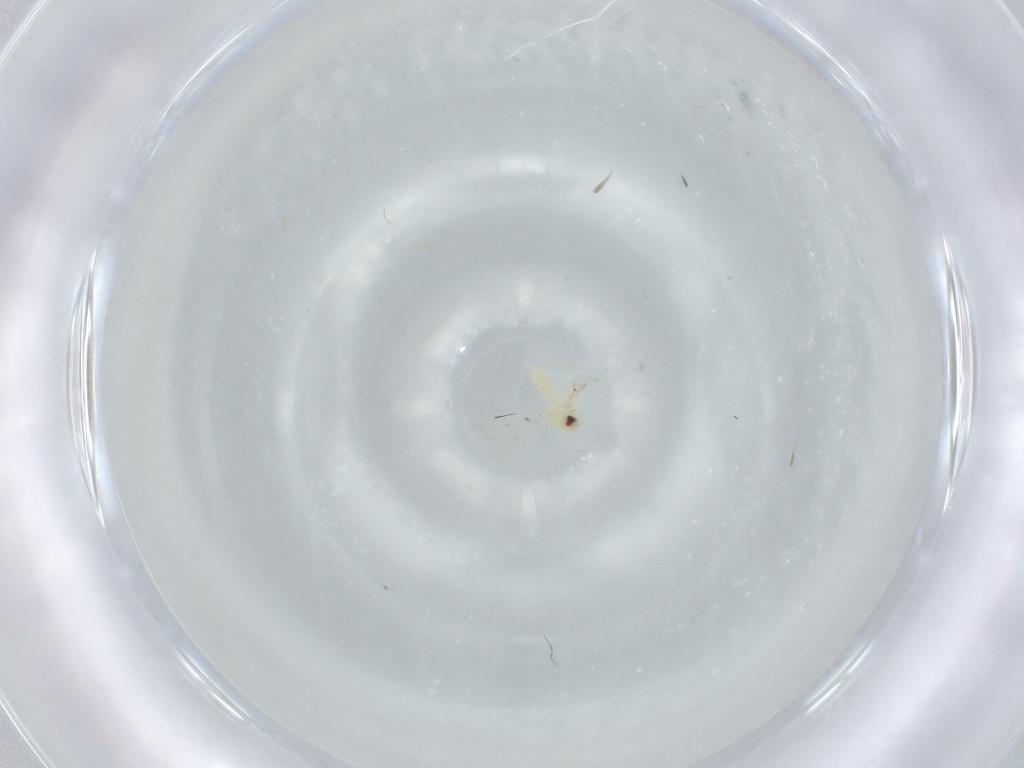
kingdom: Animalia
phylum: Arthropoda
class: Insecta
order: Hemiptera
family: Aleyrodidae
